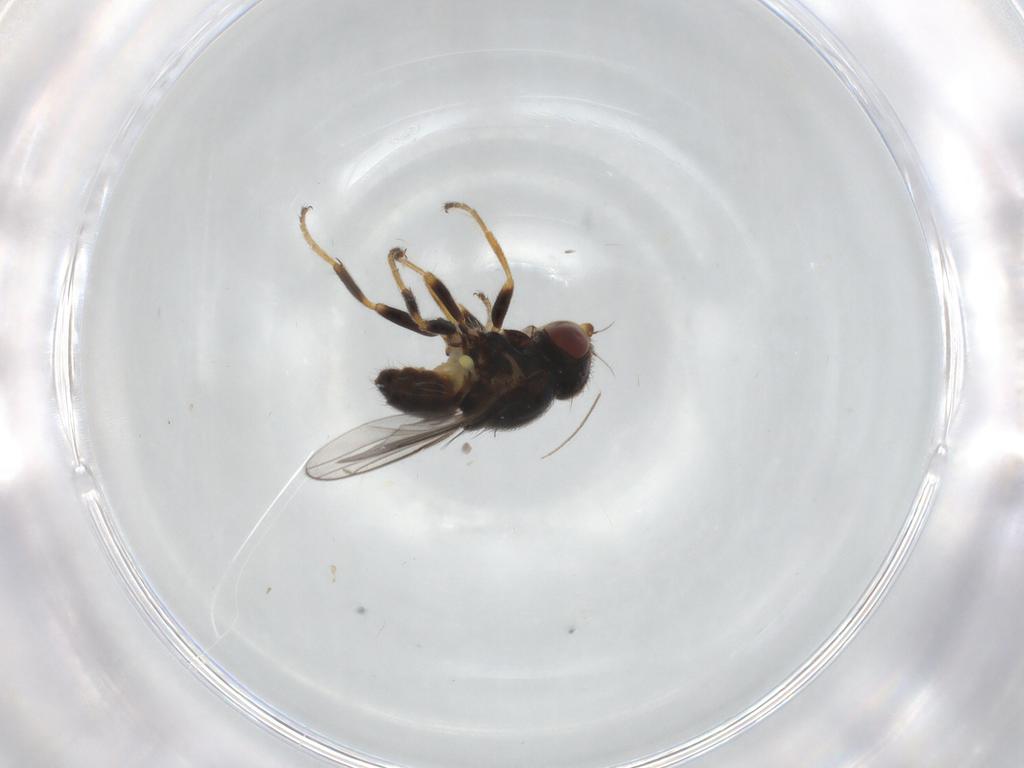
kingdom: Animalia
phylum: Arthropoda
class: Insecta
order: Diptera
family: Chloropidae
